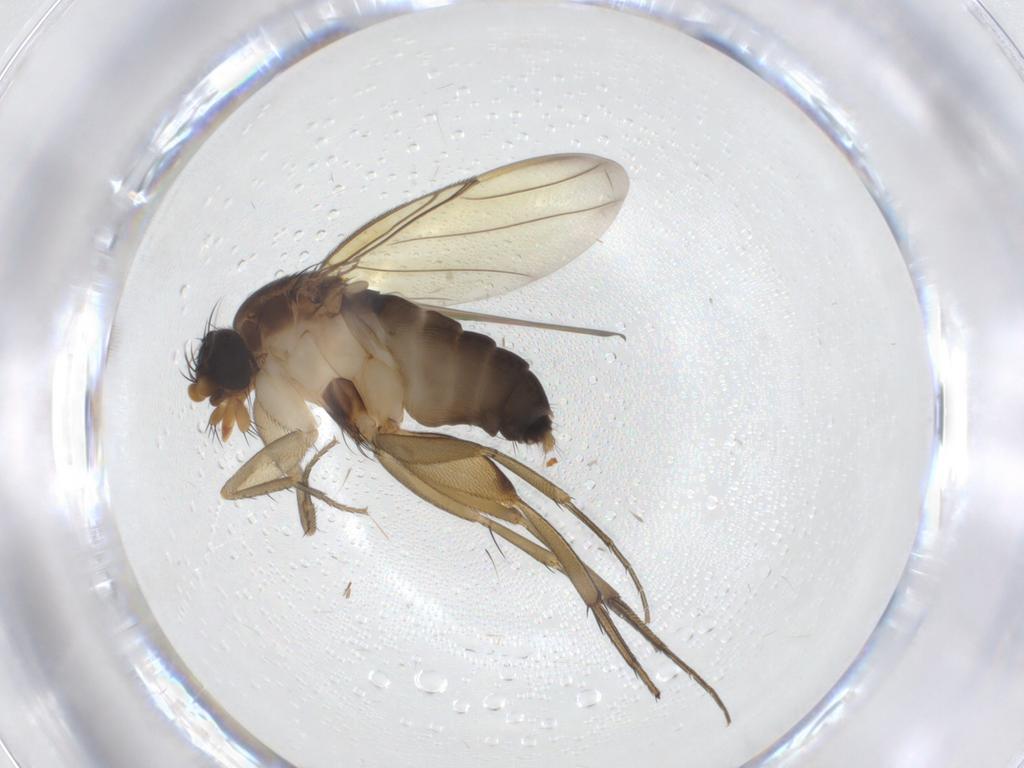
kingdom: Animalia
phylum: Arthropoda
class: Insecta
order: Diptera
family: Phoridae
